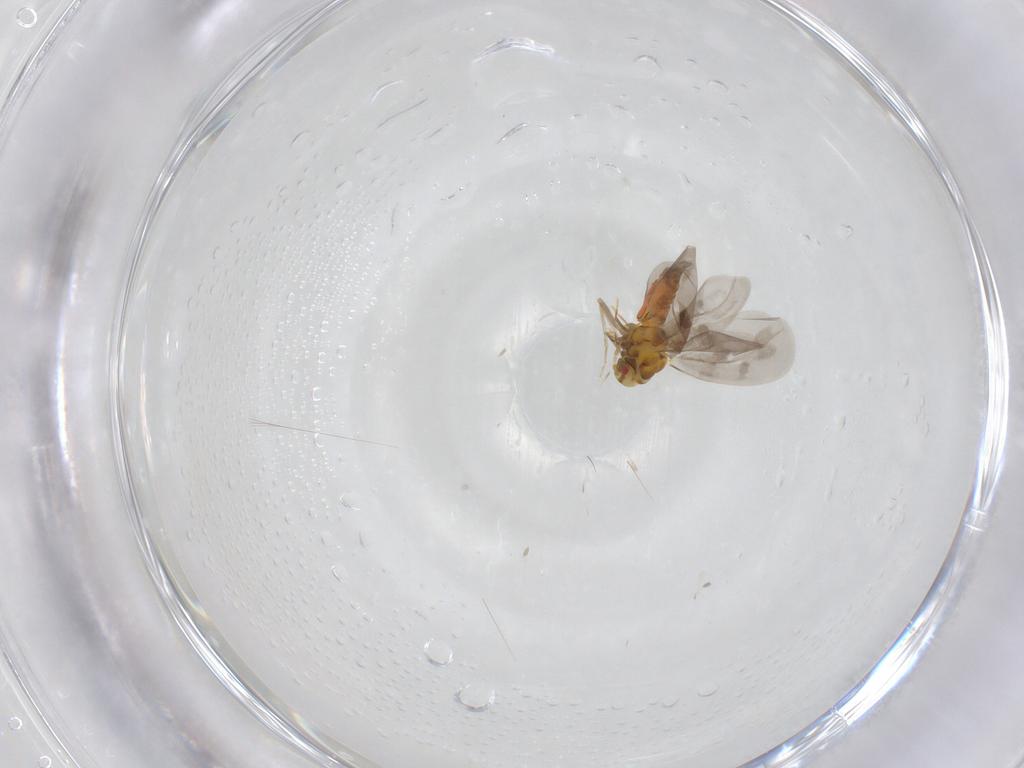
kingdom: Animalia
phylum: Arthropoda
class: Insecta
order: Hemiptera
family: Aleyrodidae
